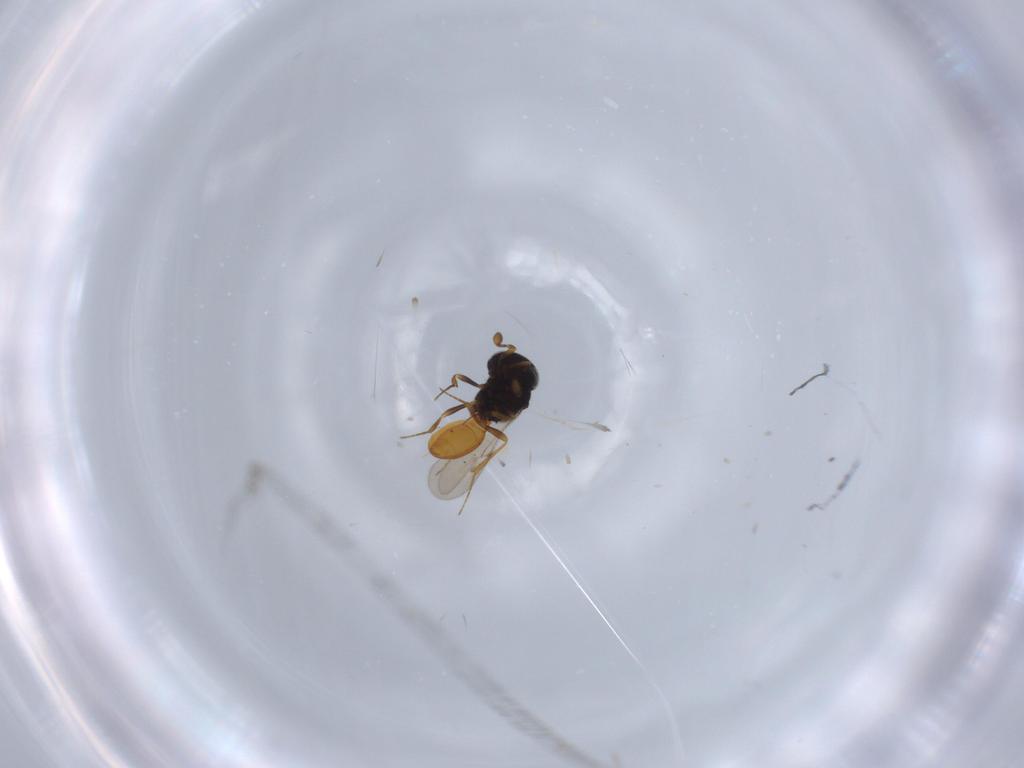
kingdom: Animalia
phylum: Arthropoda
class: Insecta
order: Hymenoptera
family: Scelionidae
